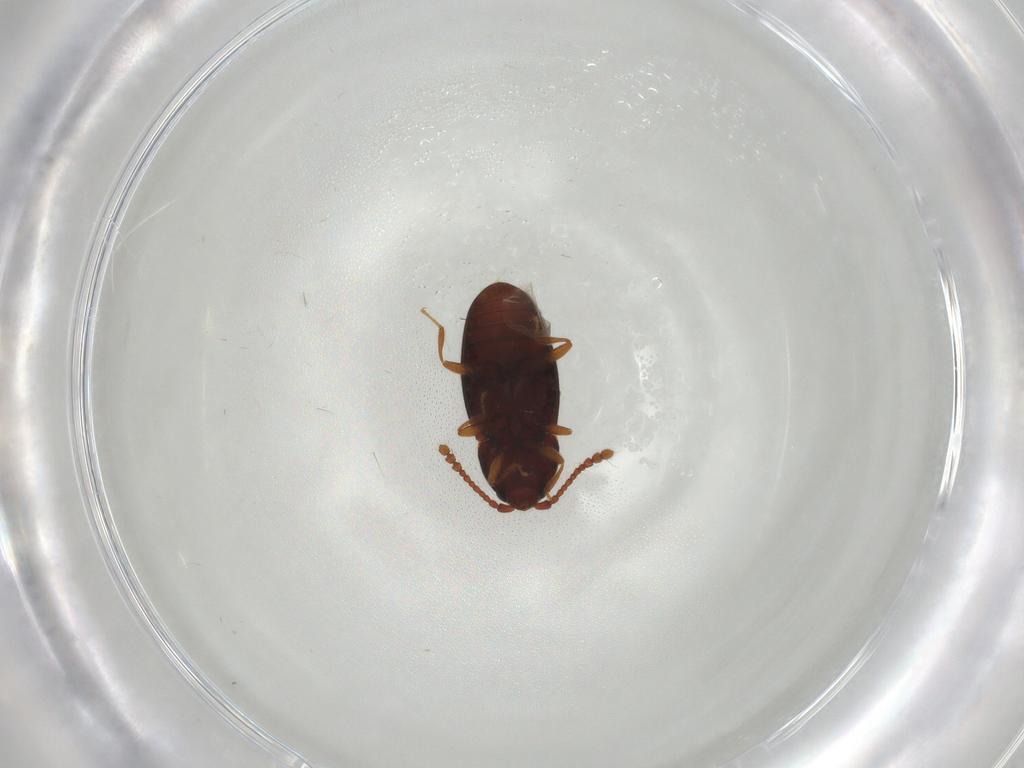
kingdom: Animalia
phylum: Arthropoda
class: Insecta
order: Coleoptera
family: Cryptophagidae
